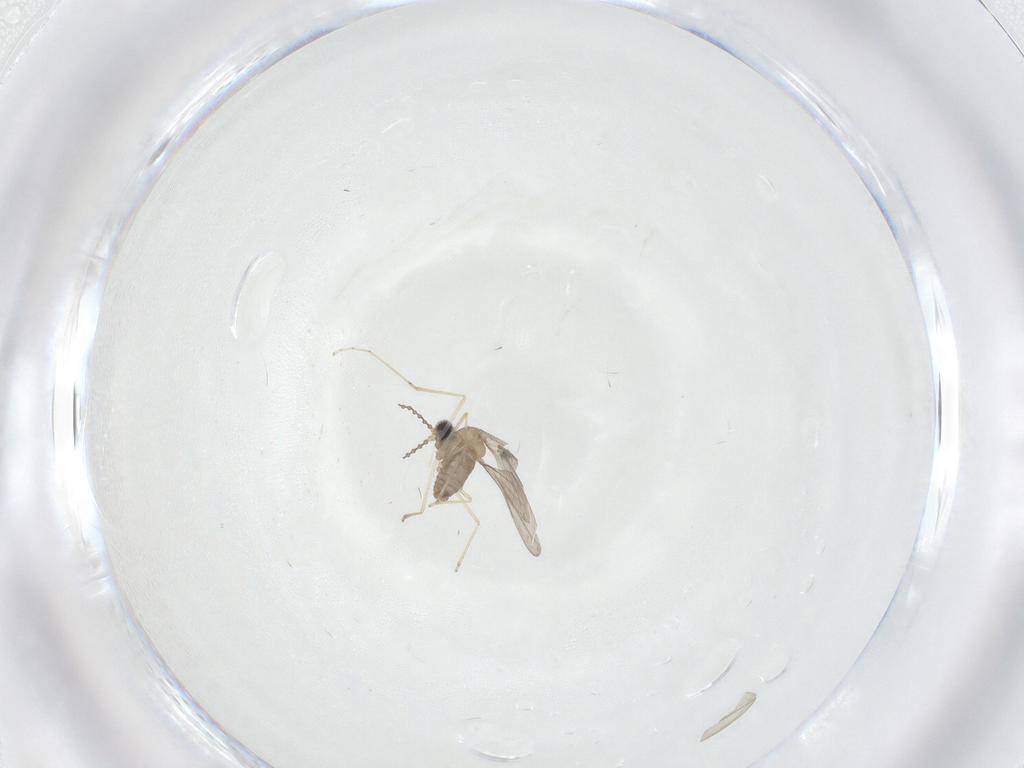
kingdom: Animalia
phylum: Arthropoda
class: Insecta
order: Diptera
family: Cecidomyiidae
